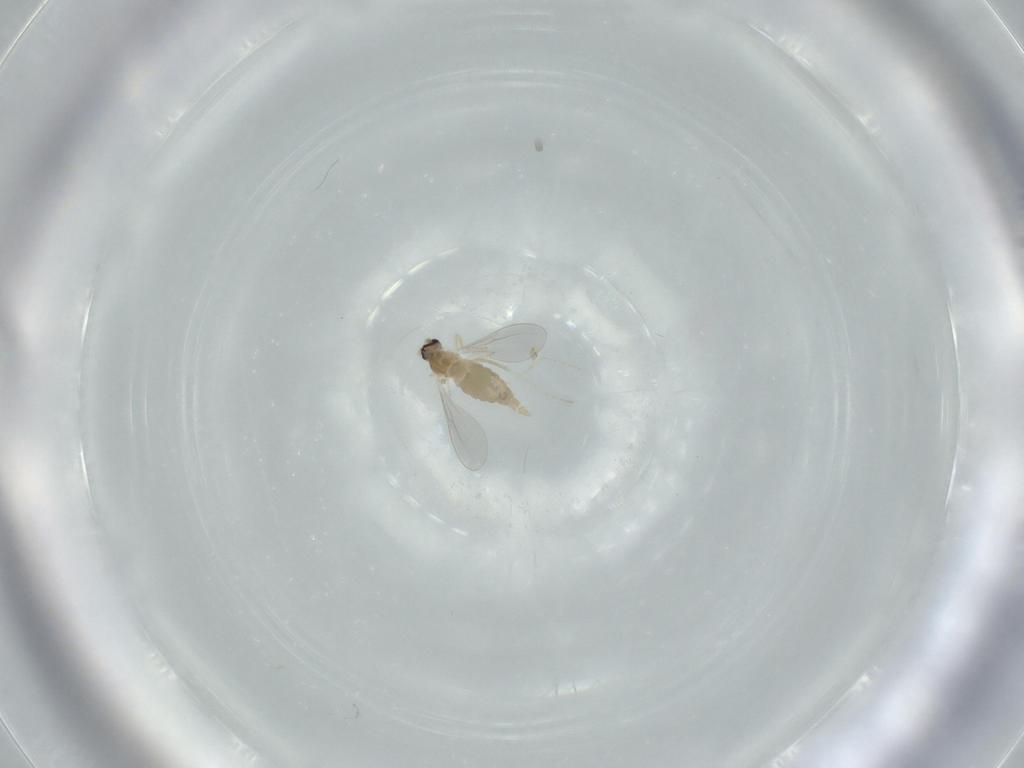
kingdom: Animalia
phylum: Arthropoda
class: Insecta
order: Diptera
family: Cecidomyiidae
